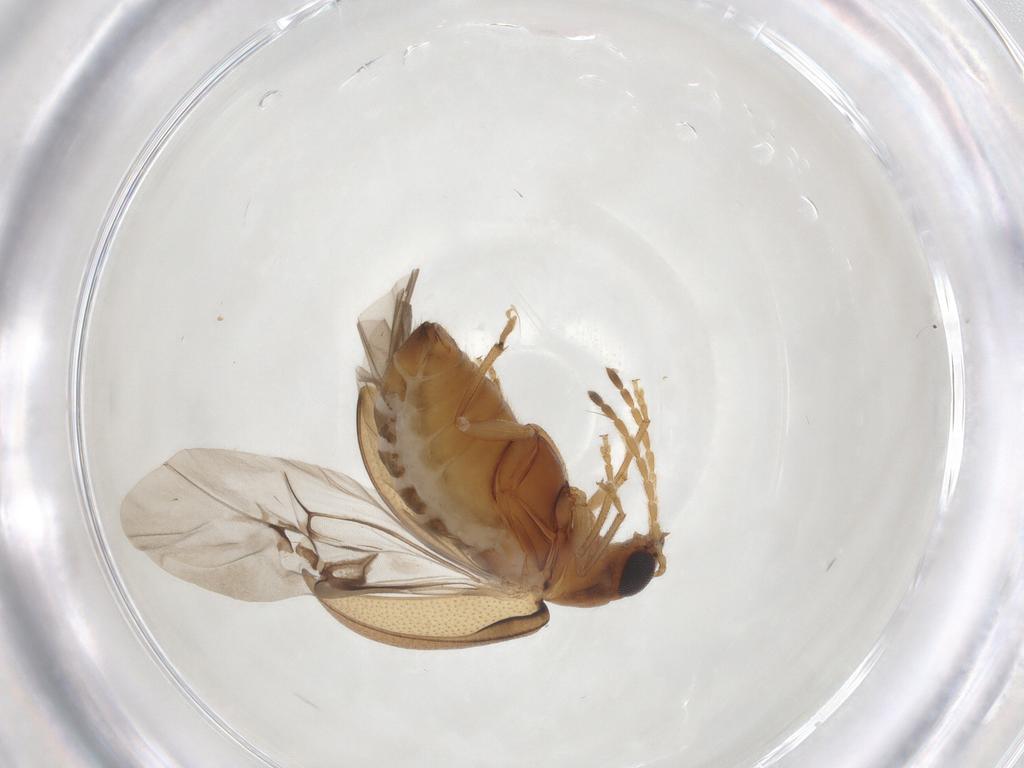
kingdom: Animalia
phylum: Arthropoda
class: Insecta
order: Coleoptera
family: Chrysomelidae
